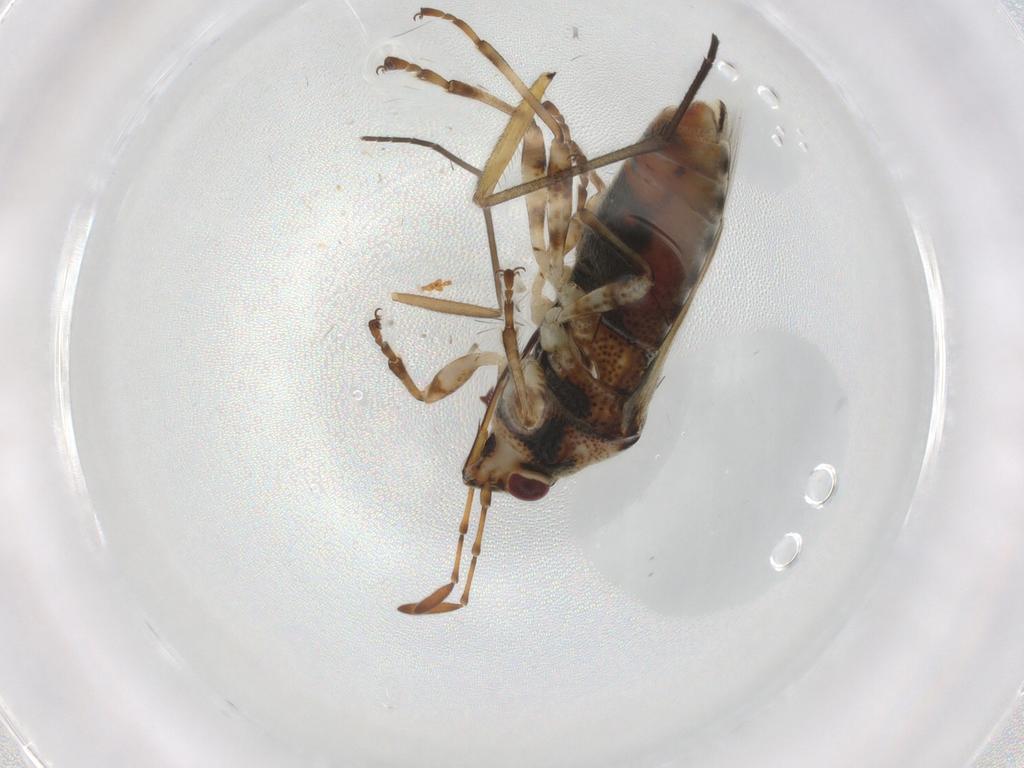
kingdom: Animalia
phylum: Arthropoda
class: Insecta
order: Hemiptera
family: Lygaeidae
